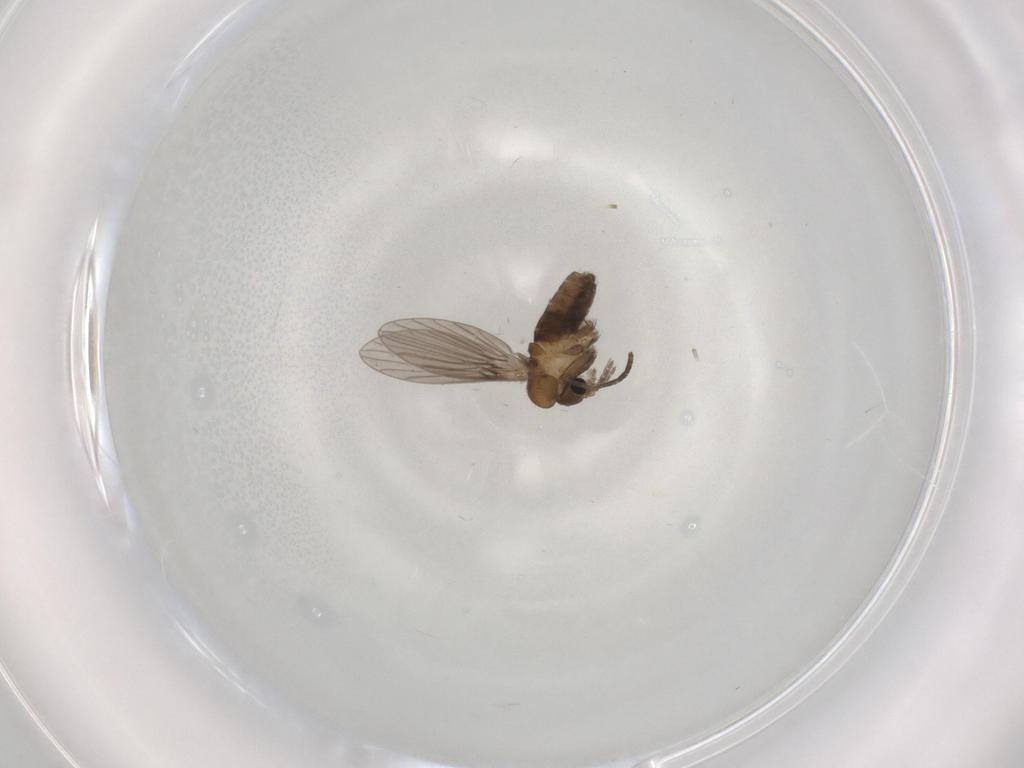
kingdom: Animalia
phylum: Arthropoda
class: Insecta
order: Diptera
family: Psychodidae
